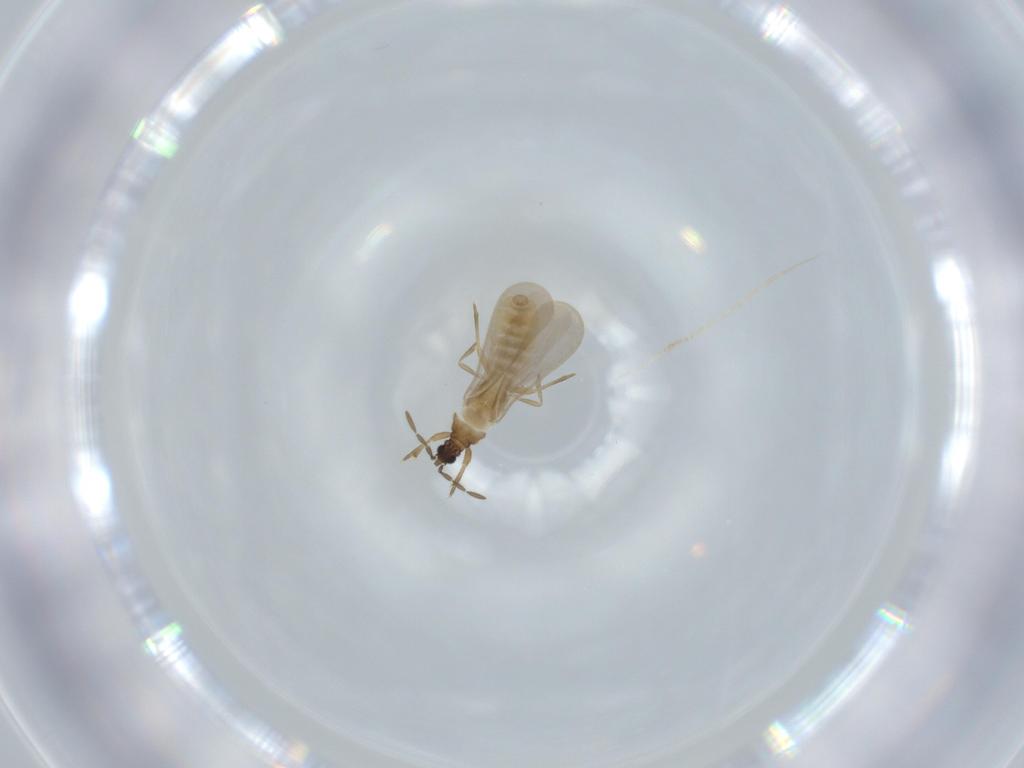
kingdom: Animalia
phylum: Arthropoda
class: Insecta
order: Hemiptera
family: Enicocephalidae
